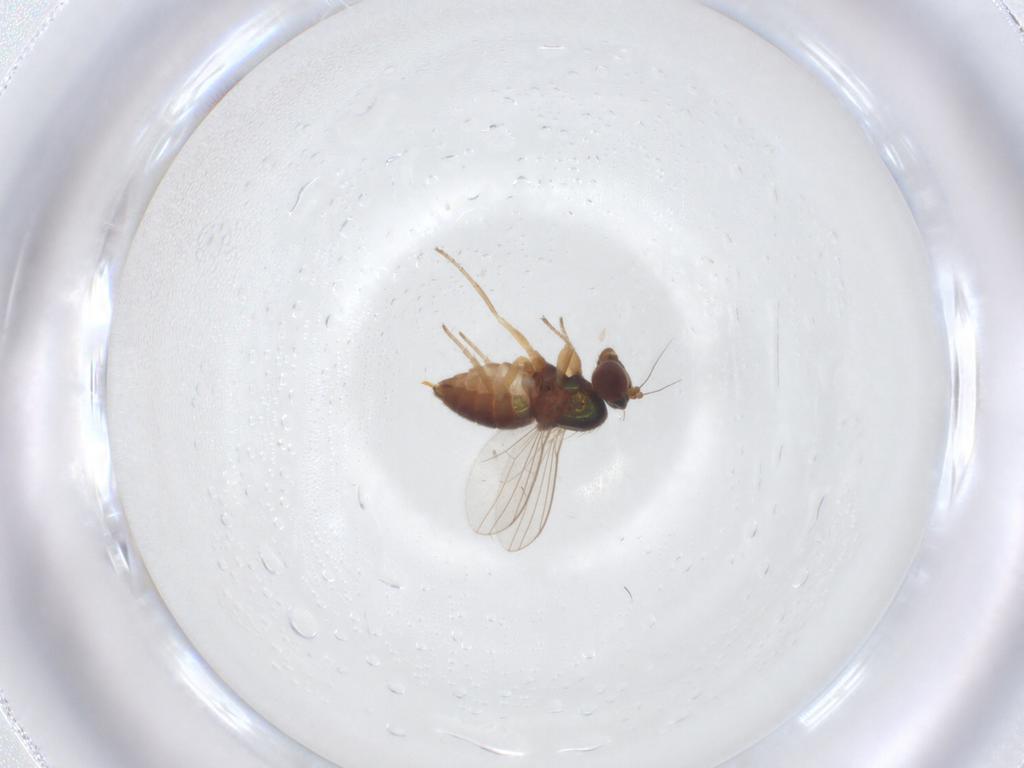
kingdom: Animalia
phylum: Arthropoda
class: Insecta
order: Diptera
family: Dolichopodidae
